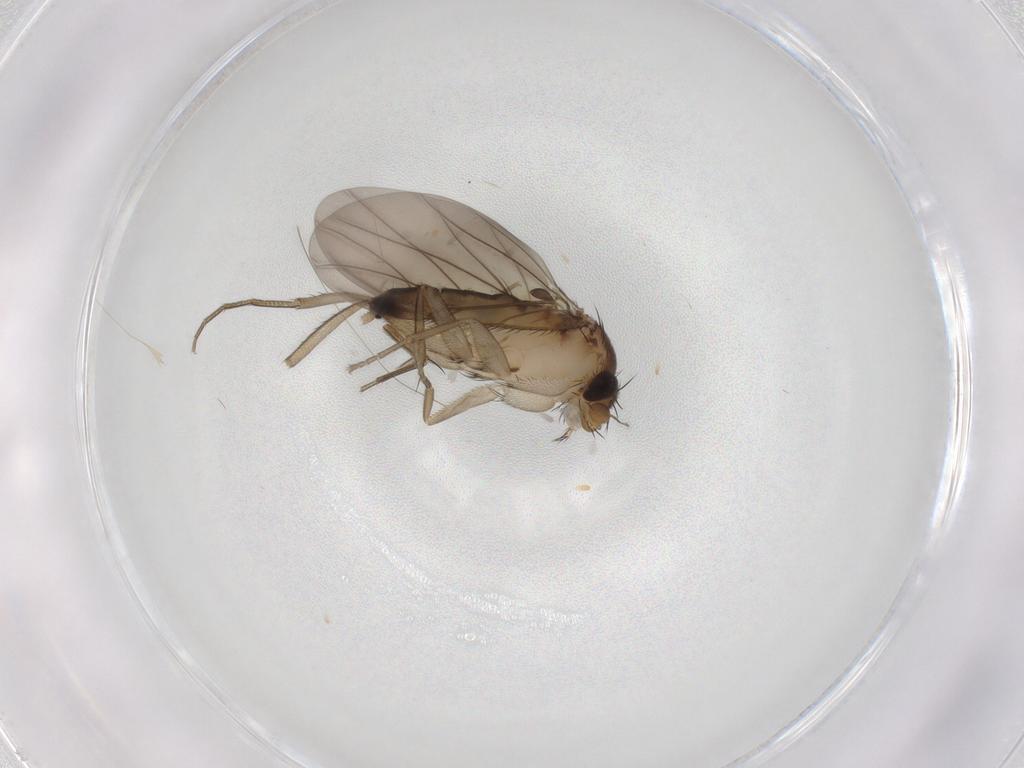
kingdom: Animalia
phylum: Arthropoda
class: Insecta
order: Diptera
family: Phoridae
